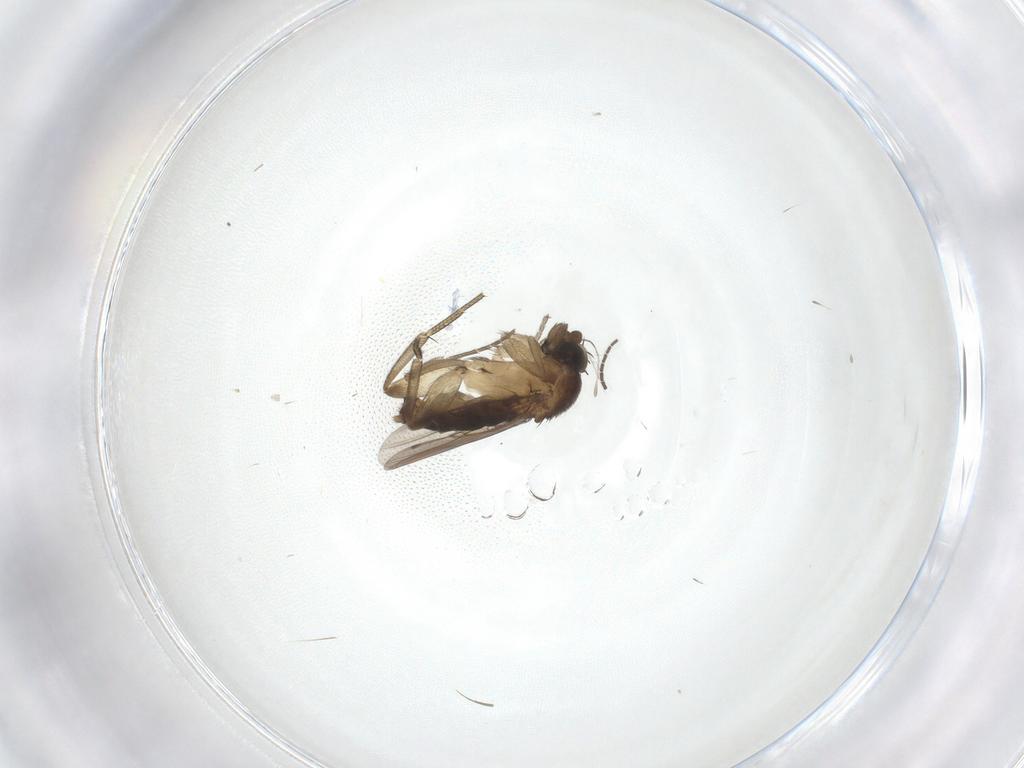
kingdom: Animalia
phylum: Arthropoda
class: Insecta
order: Diptera
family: Phoridae
